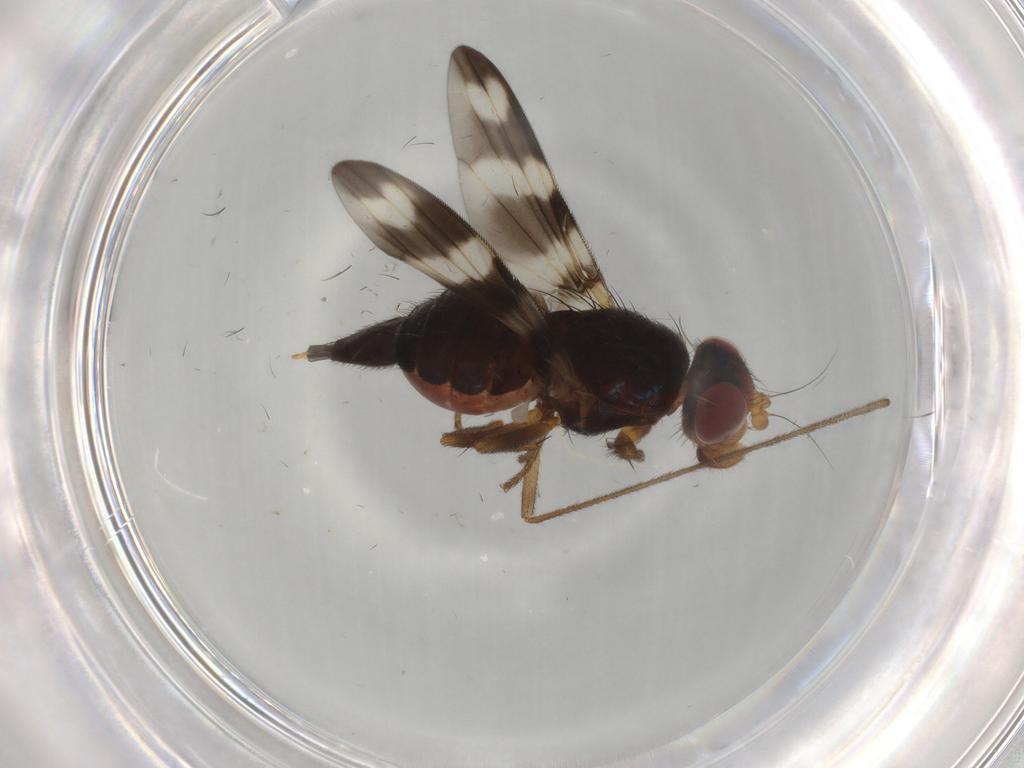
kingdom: Animalia
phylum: Arthropoda
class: Insecta
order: Diptera
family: Ulidiidae
